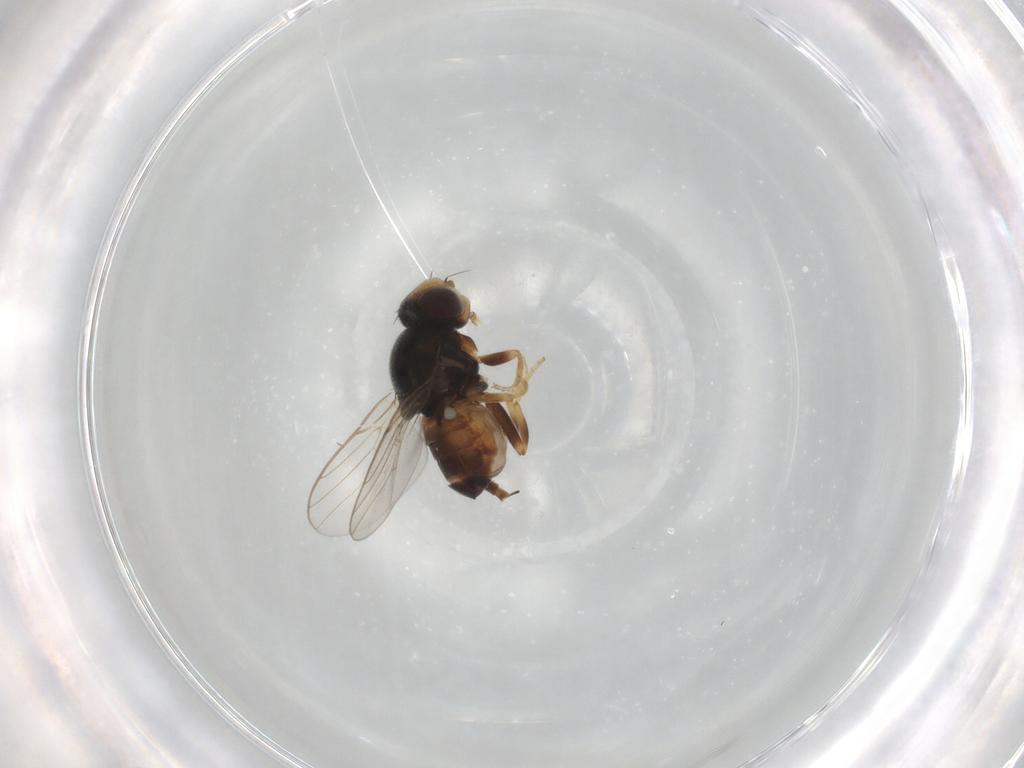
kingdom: Animalia
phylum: Arthropoda
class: Insecta
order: Diptera
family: Chloropidae
